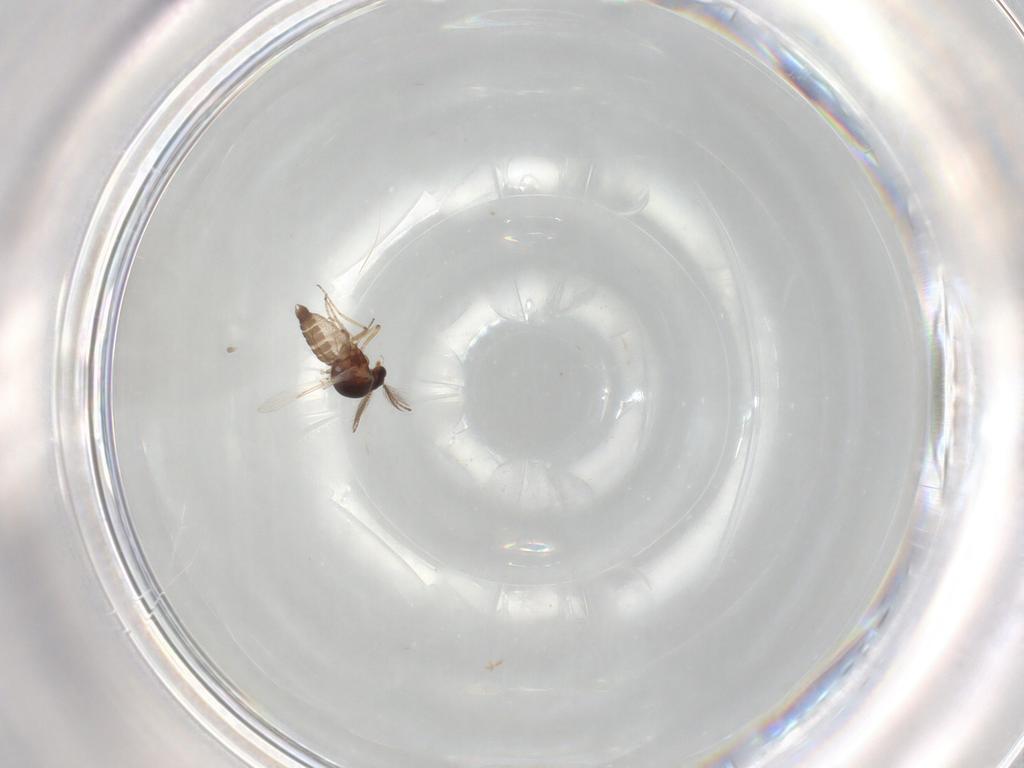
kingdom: Animalia
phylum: Arthropoda
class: Insecta
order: Diptera
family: Ceratopogonidae
